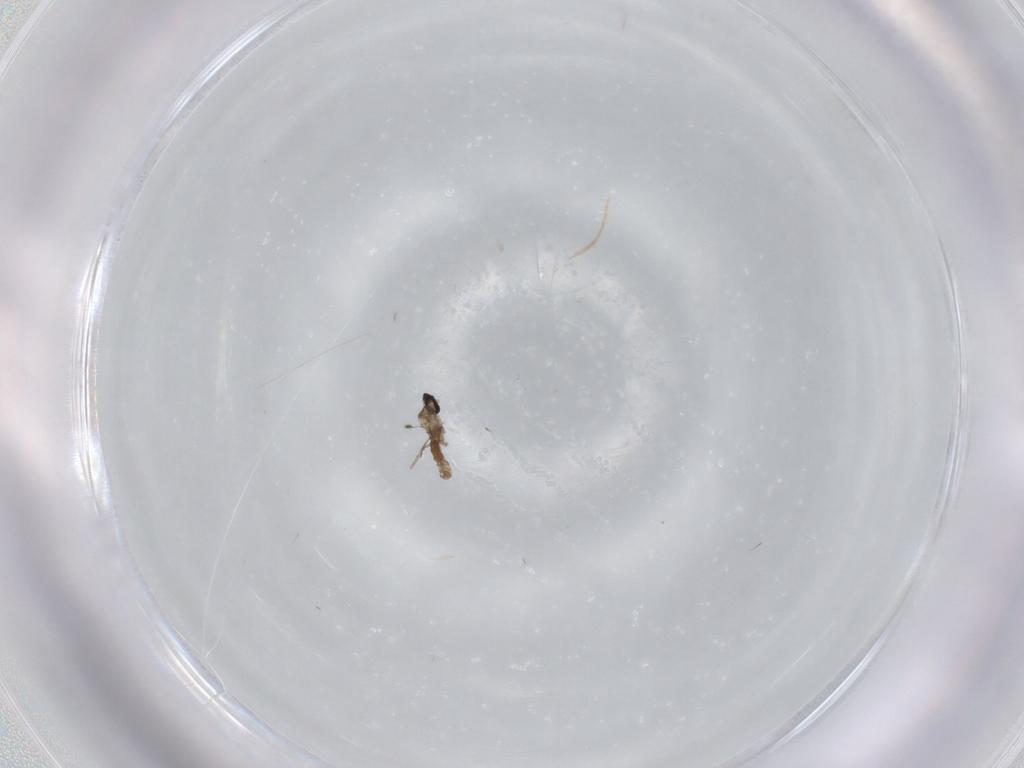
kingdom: Animalia
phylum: Arthropoda
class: Insecta
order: Diptera
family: Cecidomyiidae
